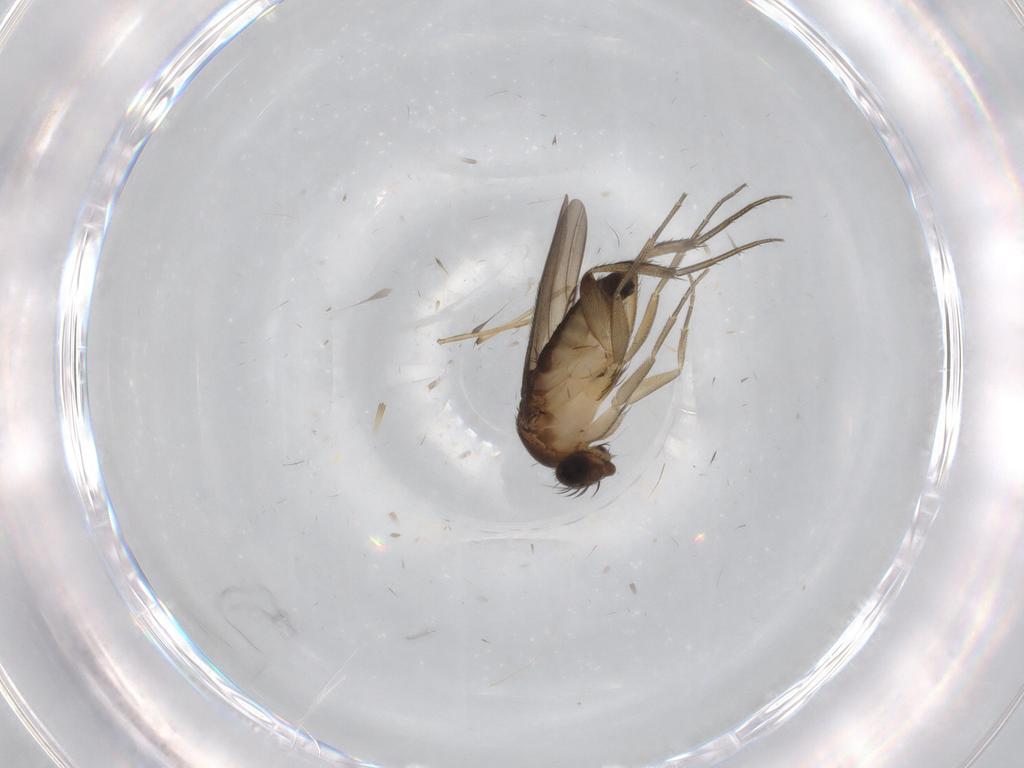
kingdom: Animalia
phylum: Arthropoda
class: Insecta
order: Diptera
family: Phoridae
